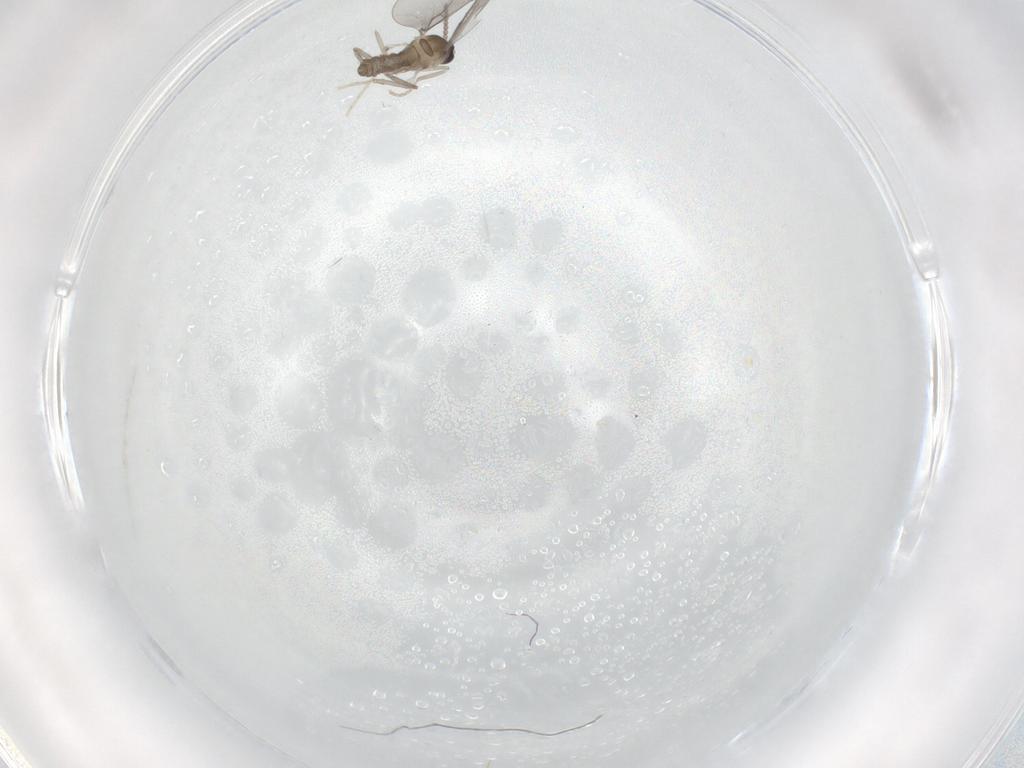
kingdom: Animalia
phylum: Arthropoda
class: Insecta
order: Diptera
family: Cecidomyiidae
